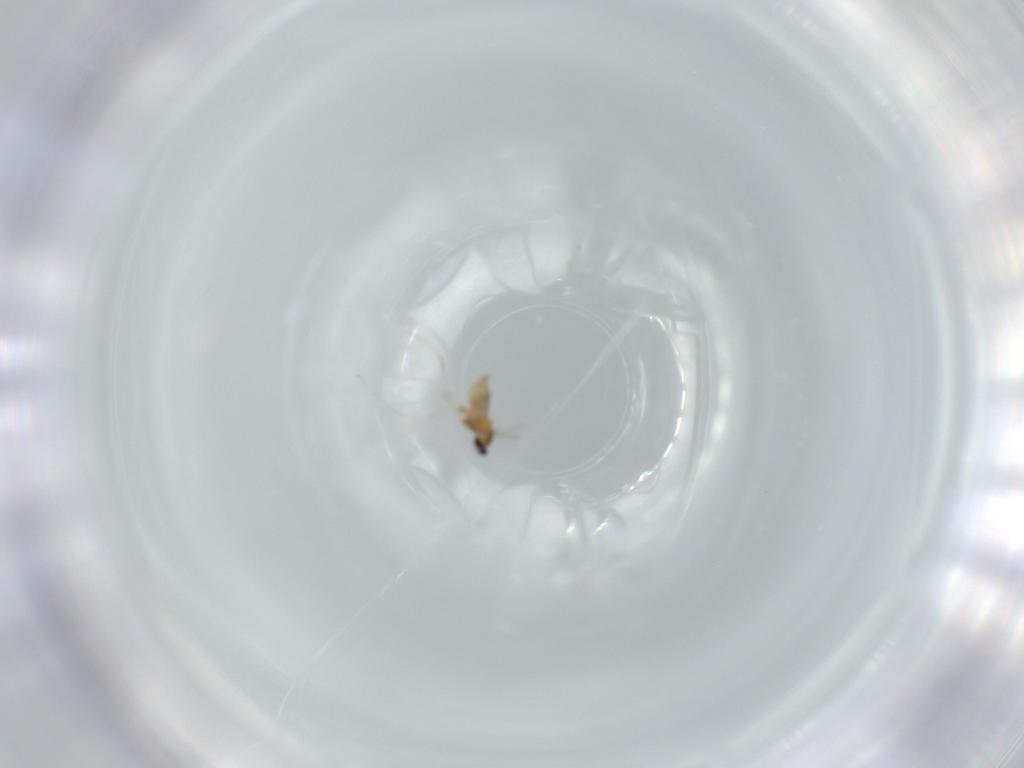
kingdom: Animalia
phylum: Arthropoda
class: Insecta
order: Diptera
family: Cecidomyiidae
